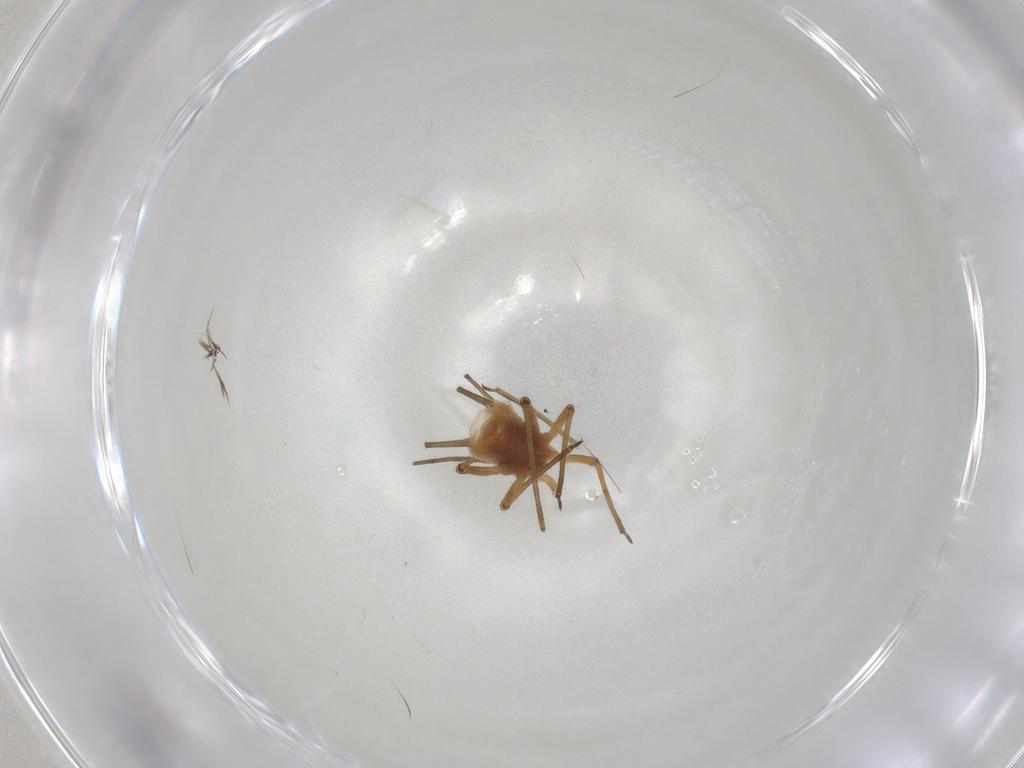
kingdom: Animalia
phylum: Arthropoda
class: Insecta
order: Hemiptera
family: Aphididae
